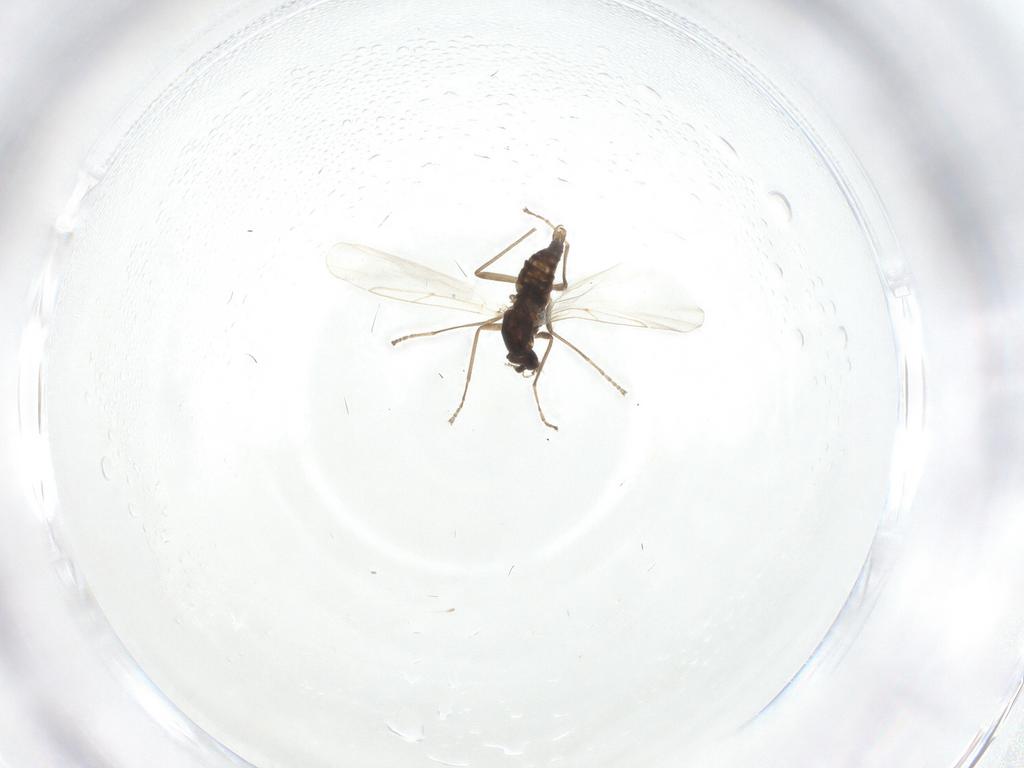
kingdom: Animalia
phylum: Arthropoda
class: Insecta
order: Diptera
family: Cecidomyiidae
